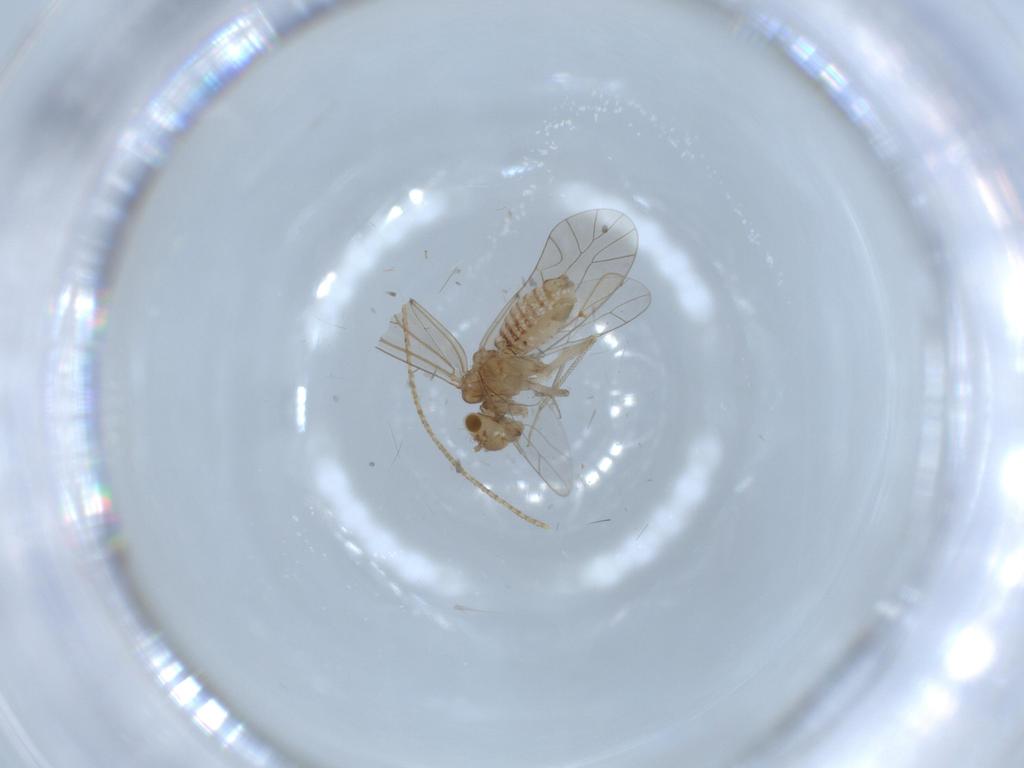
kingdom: Animalia
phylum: Arthropoda
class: Insecta
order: Psocodea
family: Lachesillidae
